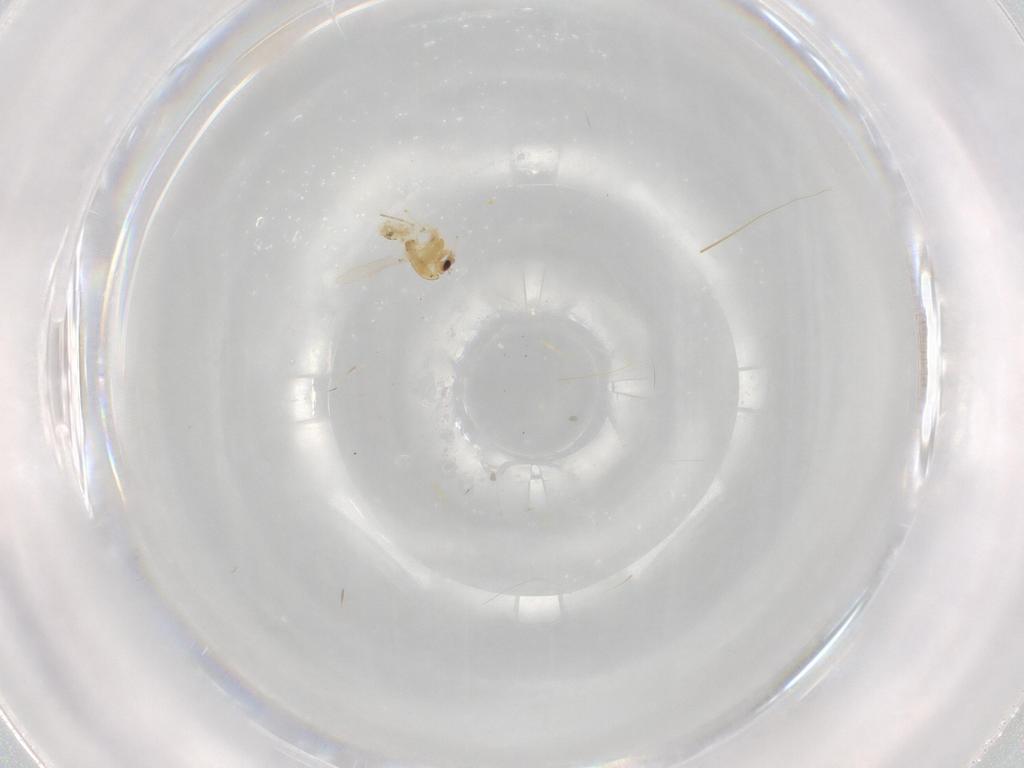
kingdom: Animalia
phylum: Arthropoda
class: Insecta
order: Diptera
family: Chironomidae
